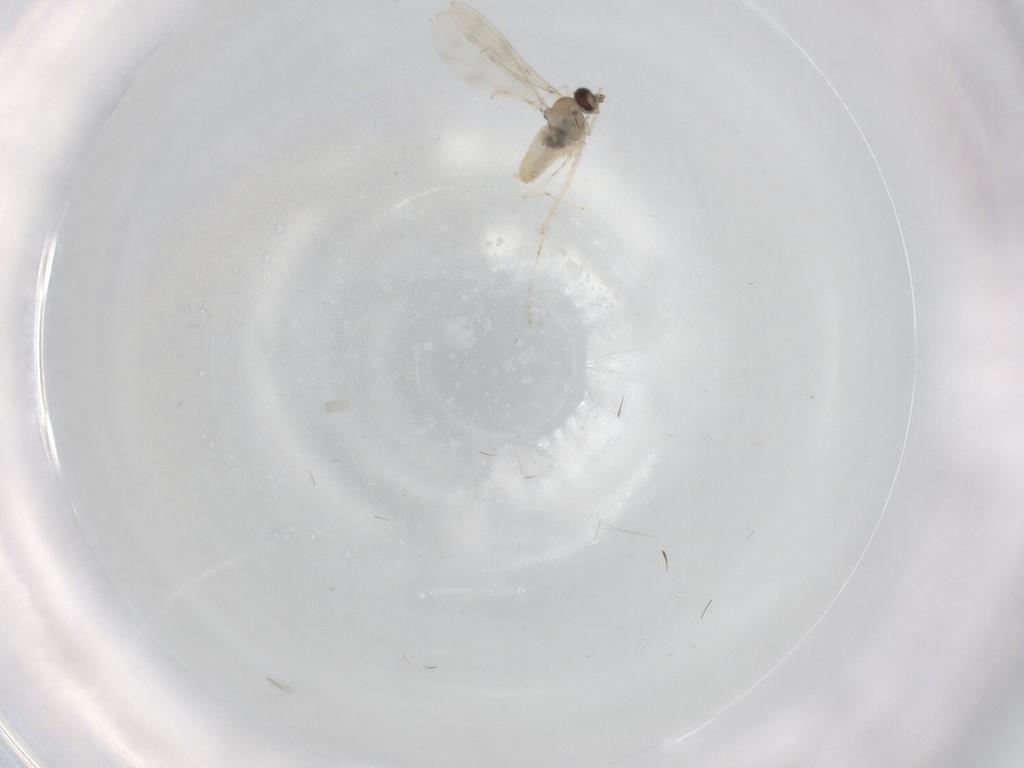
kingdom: Animalia
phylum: Arthropoda
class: Insecta
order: Diptera
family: Cecidomyiidae
